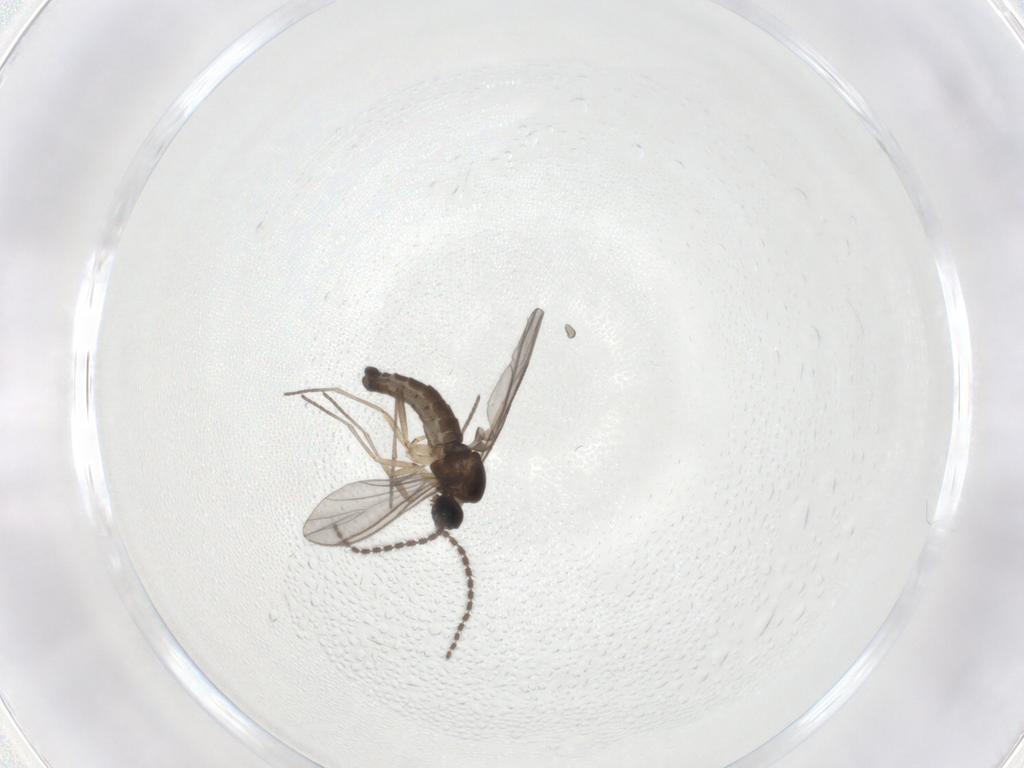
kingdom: Animalia
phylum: Arthropoda
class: Insecta
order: Diptera
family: Sciaridae
